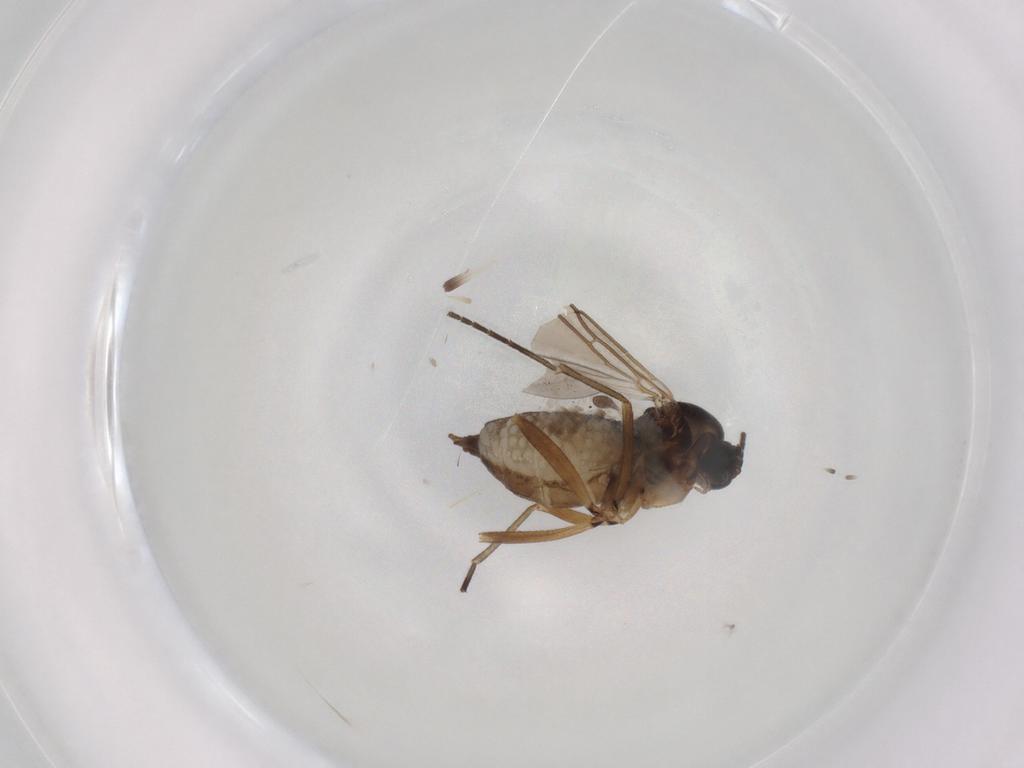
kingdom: Animalia
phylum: Arthropoda
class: Insecta
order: Diptera
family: Sciaridae
